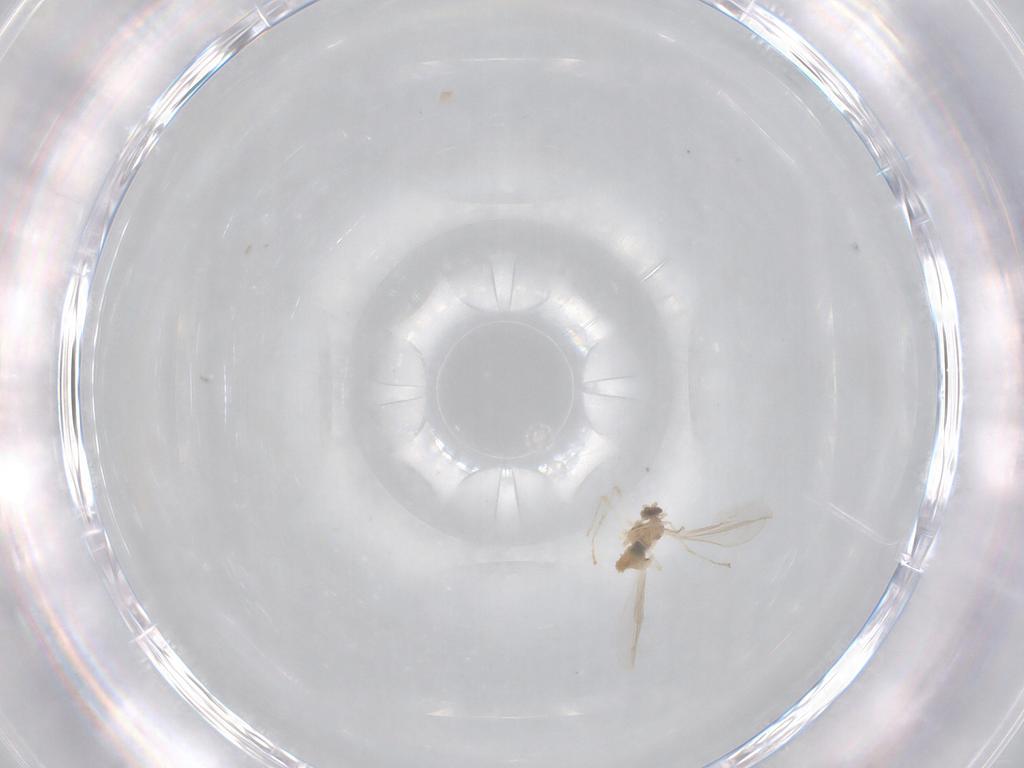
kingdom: Animalia
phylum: Arthropoda
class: Insecta
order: Diptera
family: Cecidomyiidae
